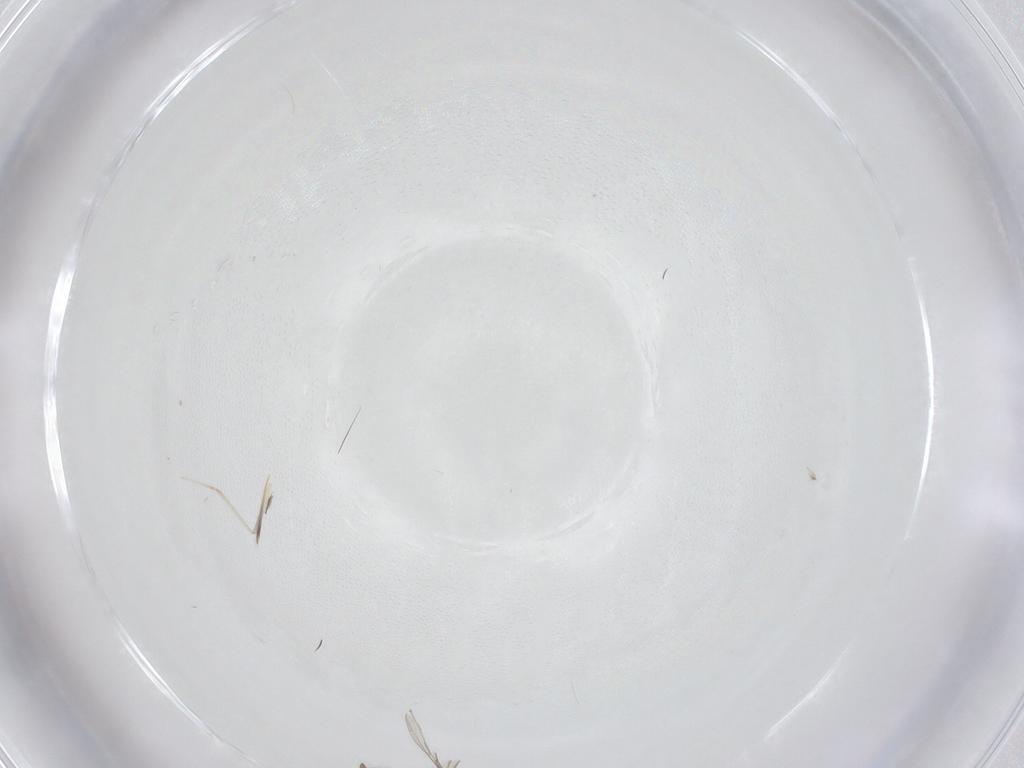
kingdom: Animalia
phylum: Arthropoda
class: Insecta
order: Diptera
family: Cecidomyiidae
